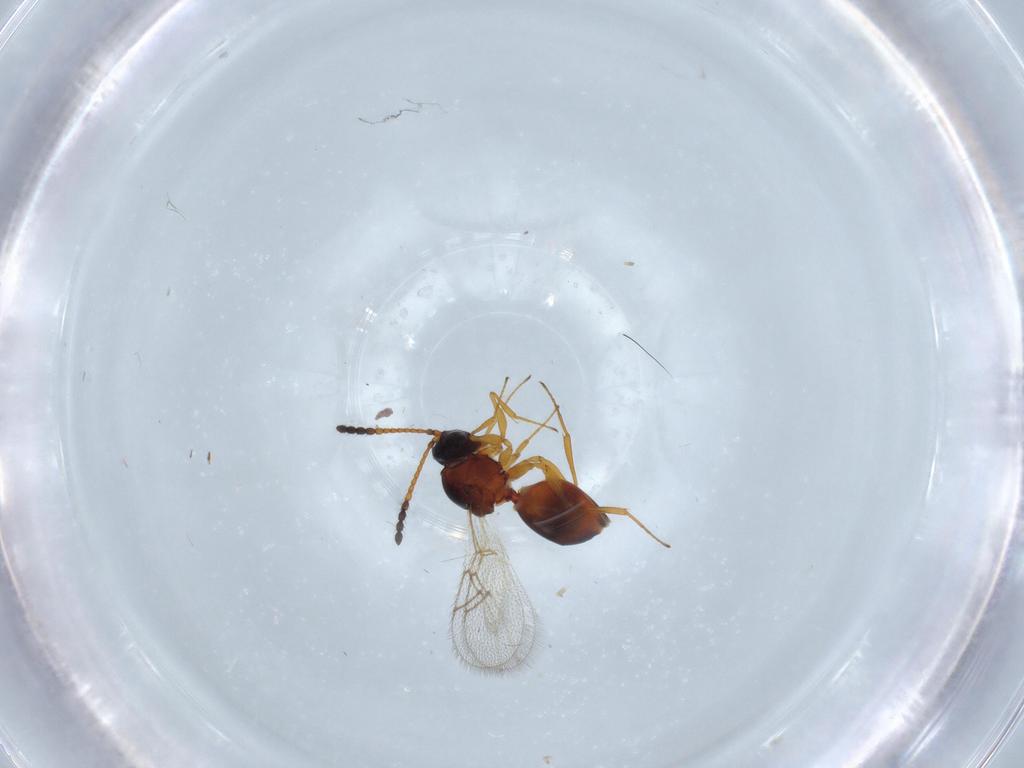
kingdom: Animalia
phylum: Arthropoda
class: Insecta
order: Hymenoptera
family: Figitidae
